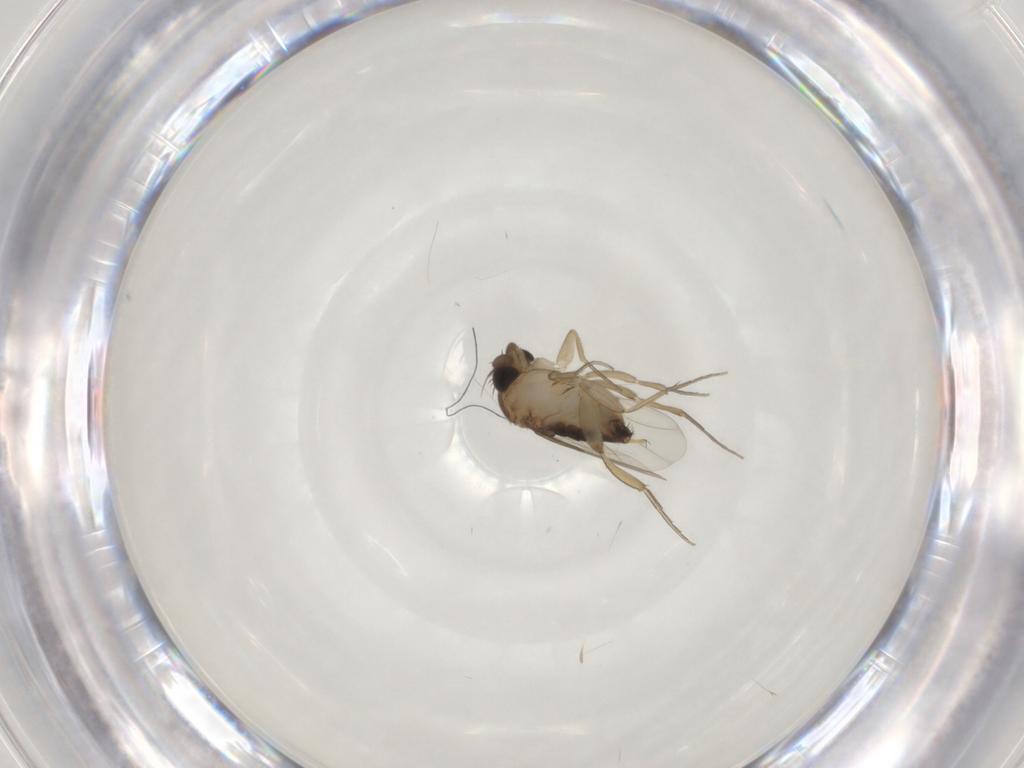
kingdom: Animalia
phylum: Arthropoda
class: Insecta
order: Diptera
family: Phoridae
